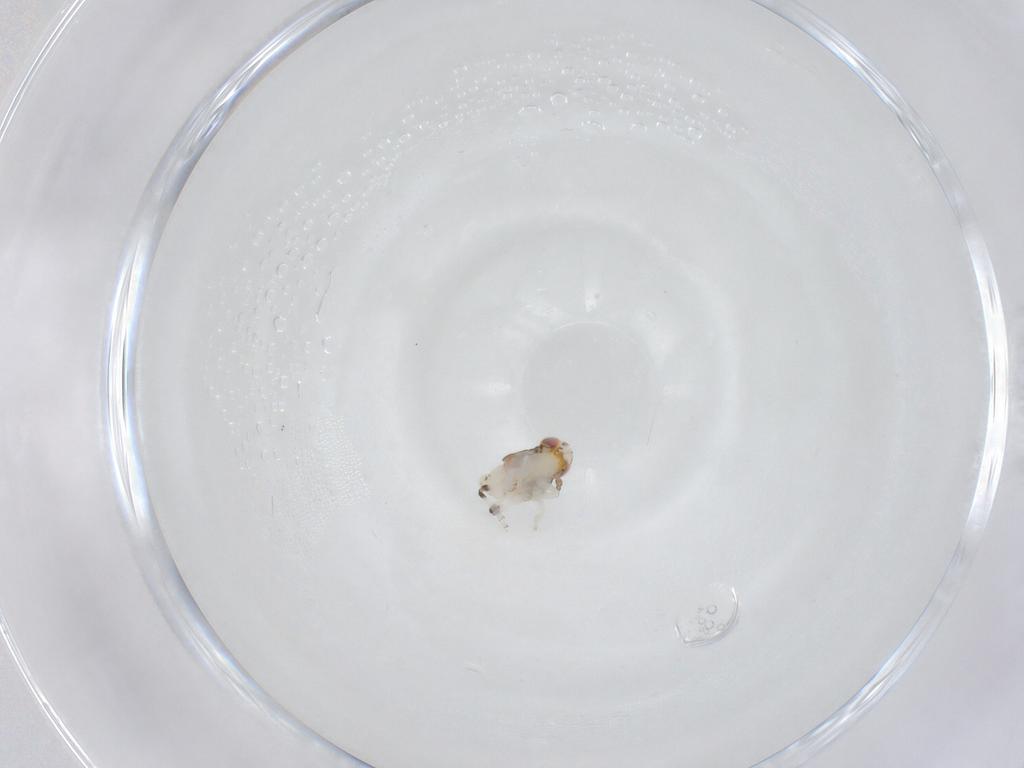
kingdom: Animalia
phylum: Arthropoda
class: Insecta
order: Hemiptera
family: Nogodinidae
